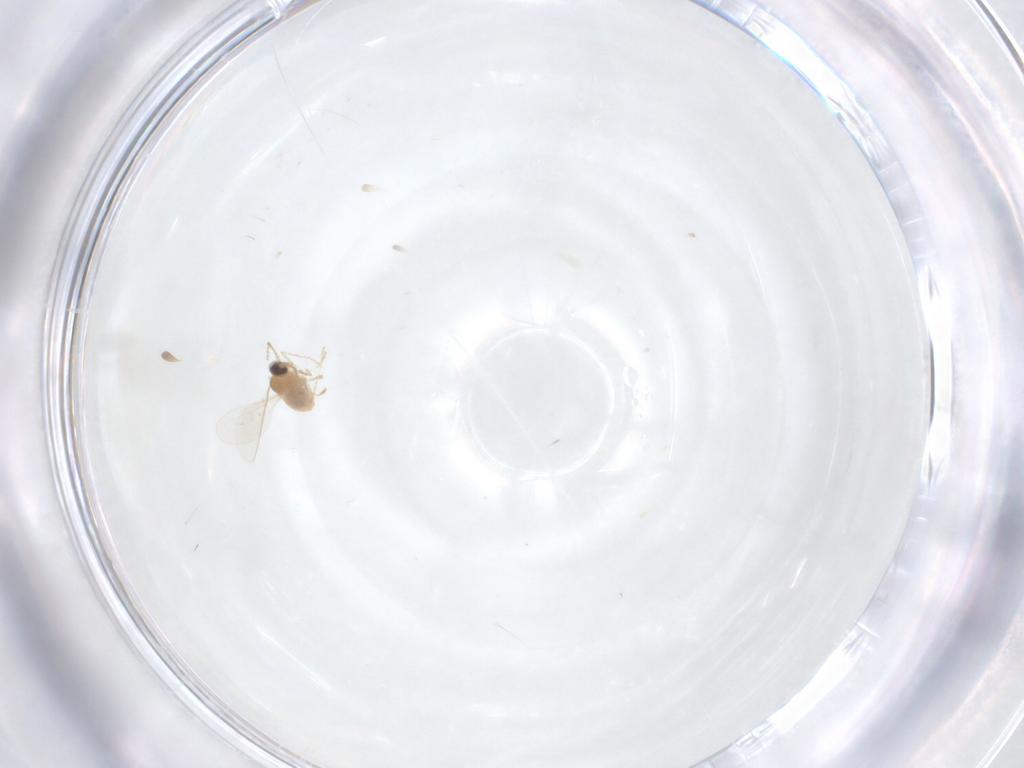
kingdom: Animalia
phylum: Arthropoda
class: Insecta
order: Diptera
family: Cecidomyiidae
